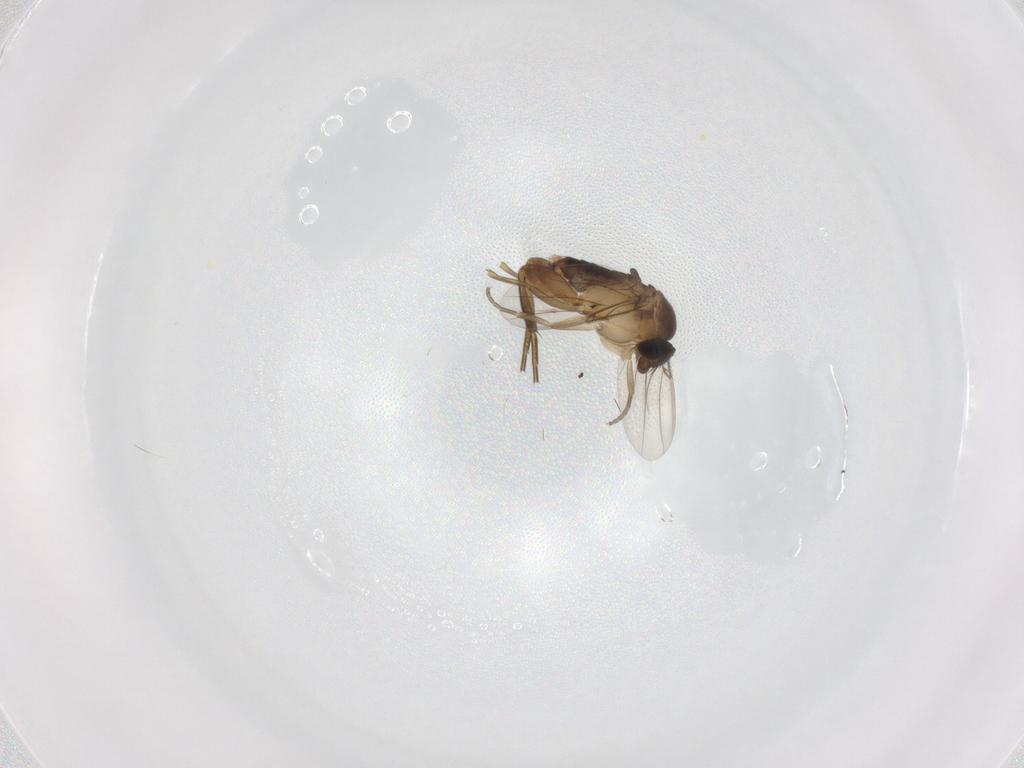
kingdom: Animalia
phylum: Arthropoda
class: Insecta
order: Diptera
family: Phoridae
